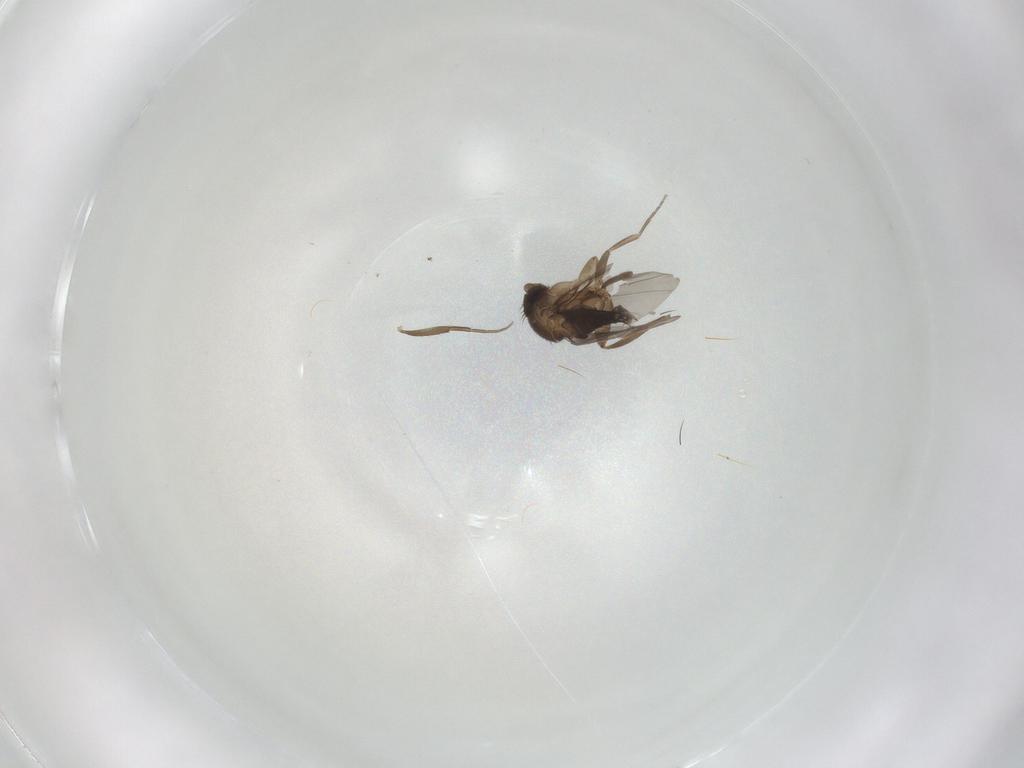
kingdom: Animalia
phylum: Arthropoda
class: Insecta
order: Diptera
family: Phoridae
